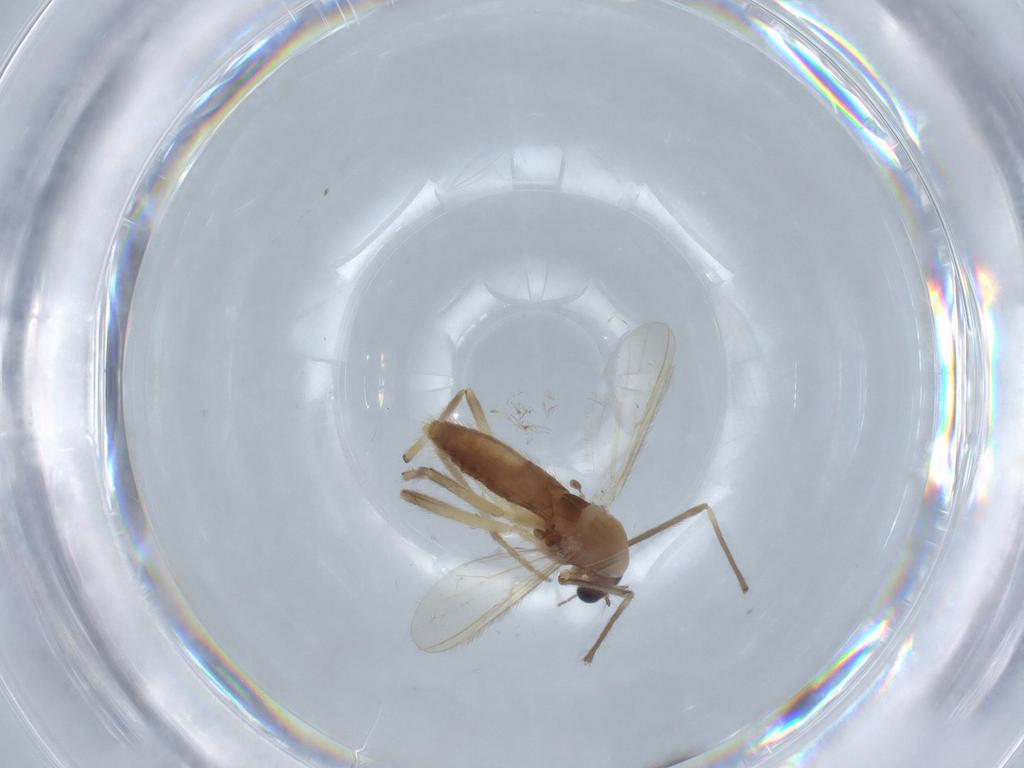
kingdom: Animalia
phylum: Arthropoda
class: Insecta
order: Diptera
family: Chironomidae
